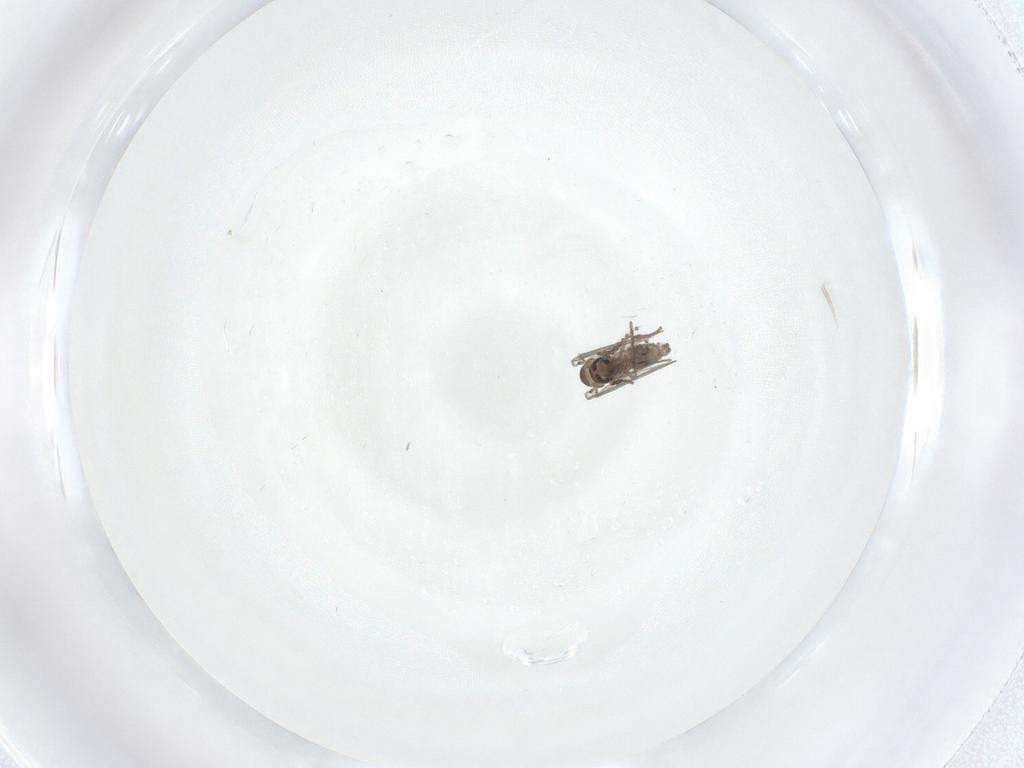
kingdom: Animalia
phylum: Arthropoda
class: Insecta
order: Diptera
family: Psychodidae
